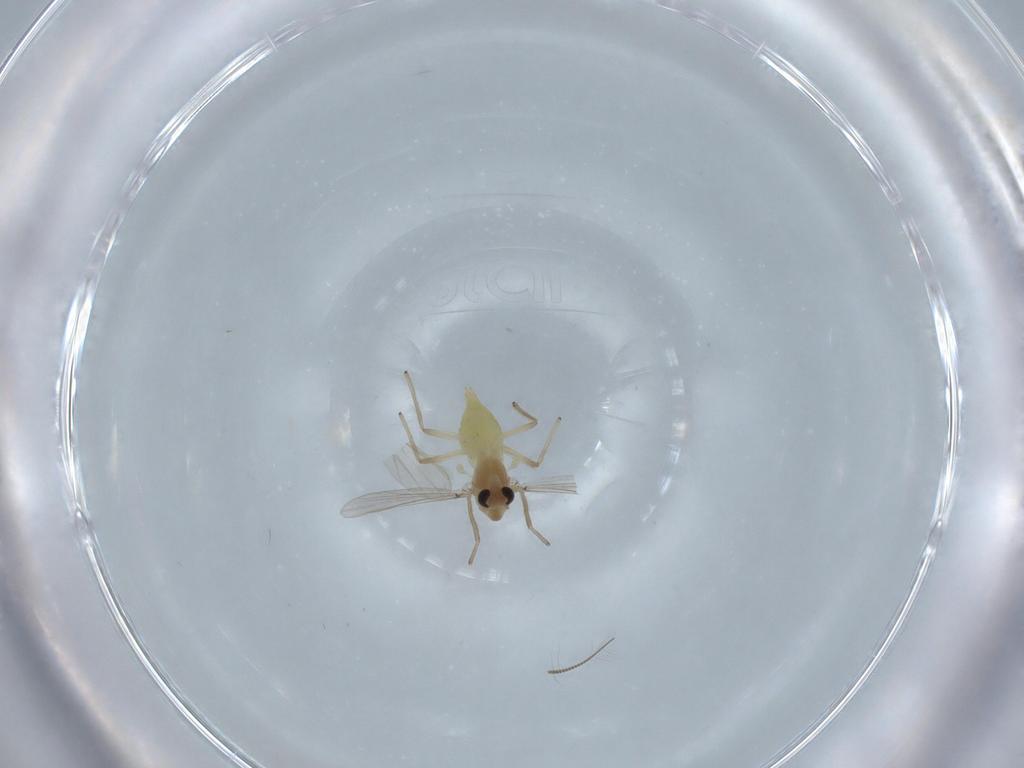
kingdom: Animalia
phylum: Arthropoda
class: Insecta
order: Diptera
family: Chironomidae
